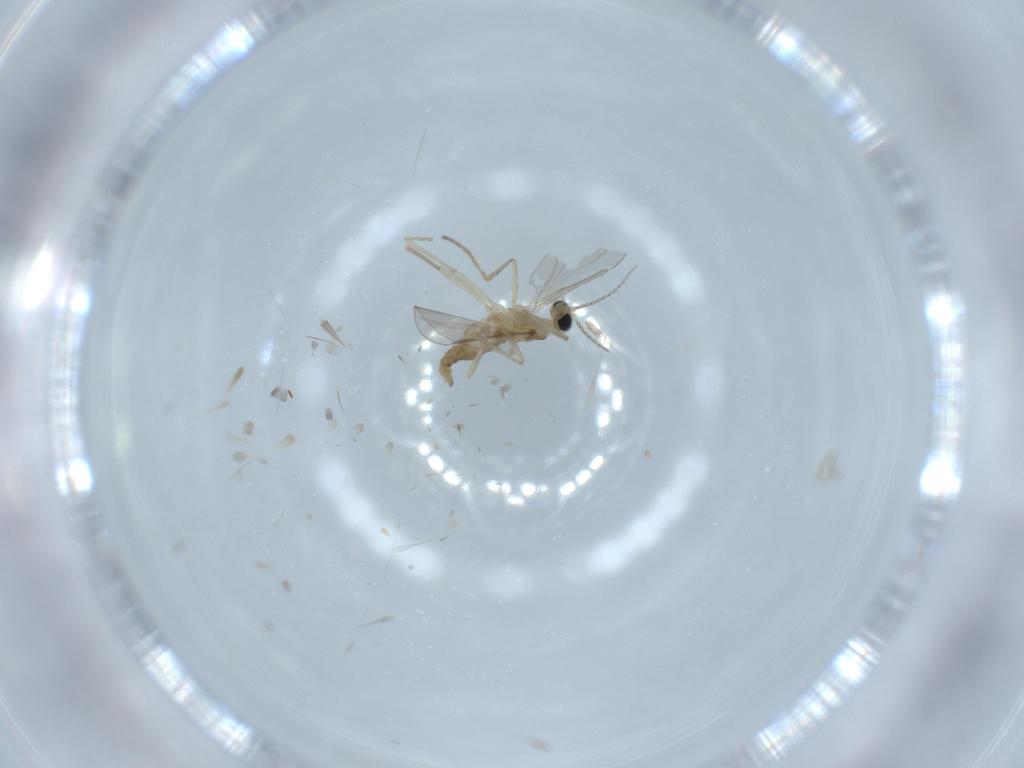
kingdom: Animalia
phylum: Arthropoda
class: Insecta
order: Diptera
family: Cecidomyiidae
